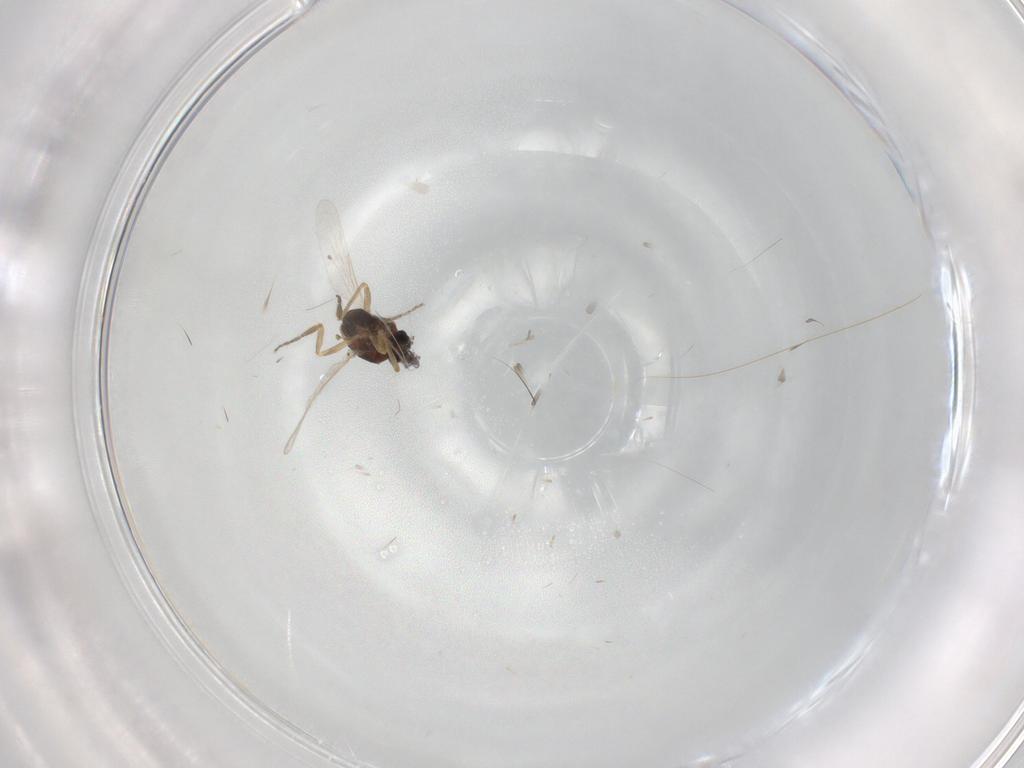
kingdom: Animalia
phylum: Arthropoda
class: Insecta
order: Diptera
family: Ceratopogonidae
